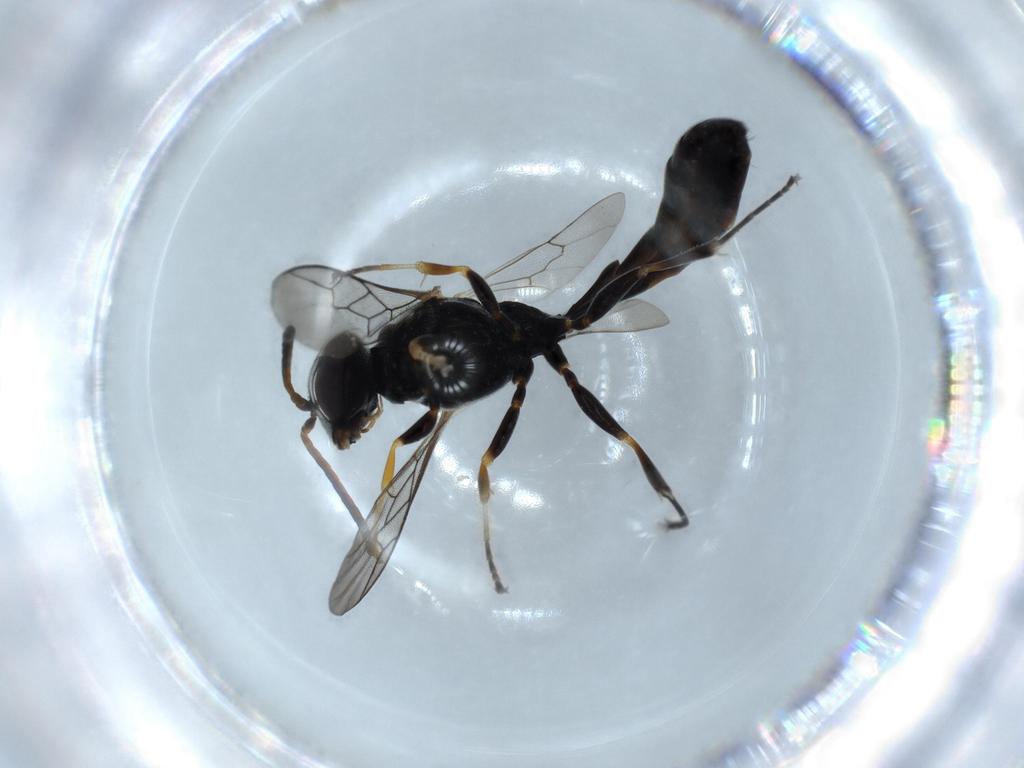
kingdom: Animalia
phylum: Arthropoda
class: Insecta
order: Hymenoptera
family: Crabronidae
